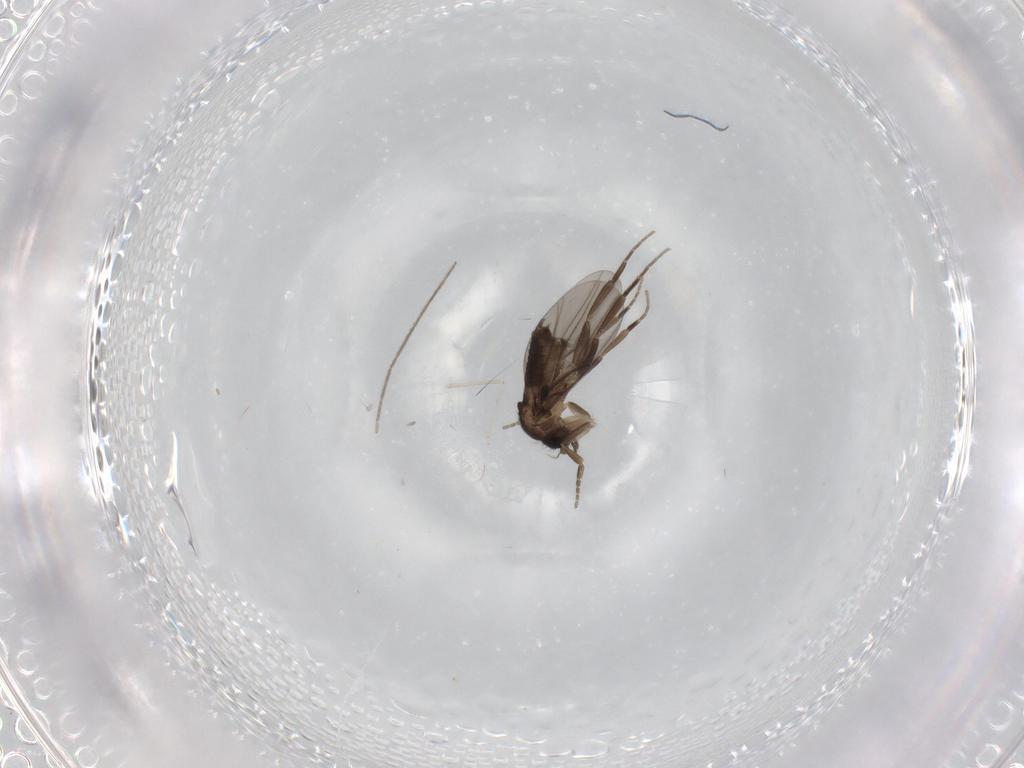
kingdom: Animalia
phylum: Arthropoda
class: Insecta
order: Diptera
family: Phoridae
